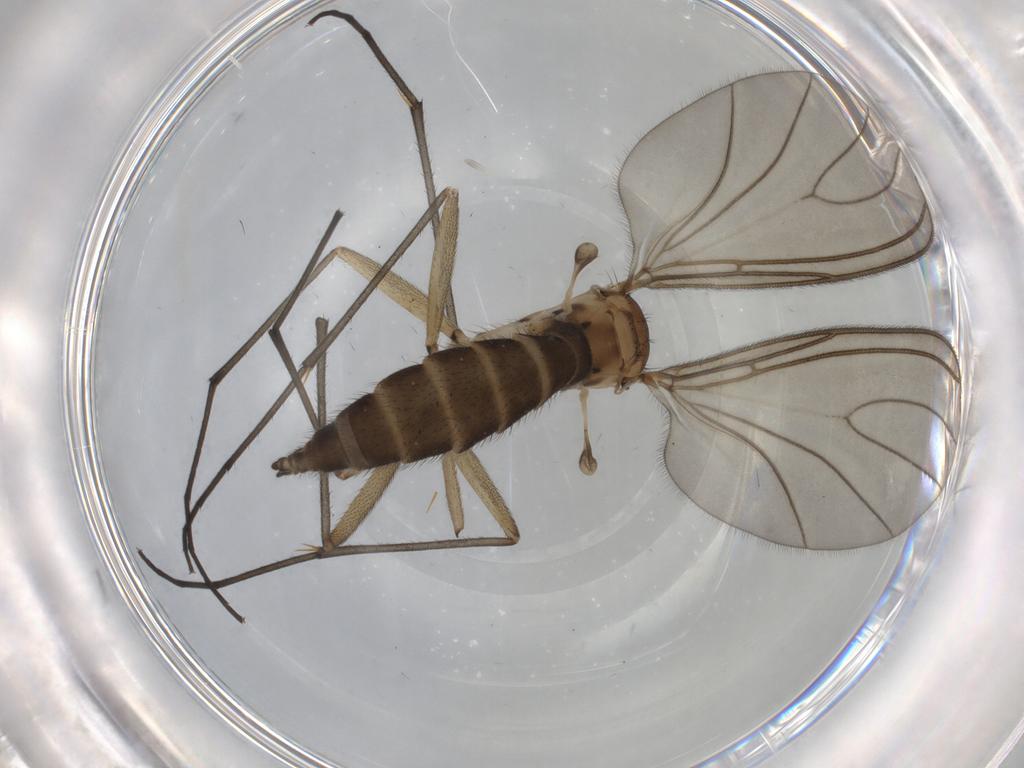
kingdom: Animalia
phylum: Arthropoda
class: Insecta
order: Diptera
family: Sciaridae
